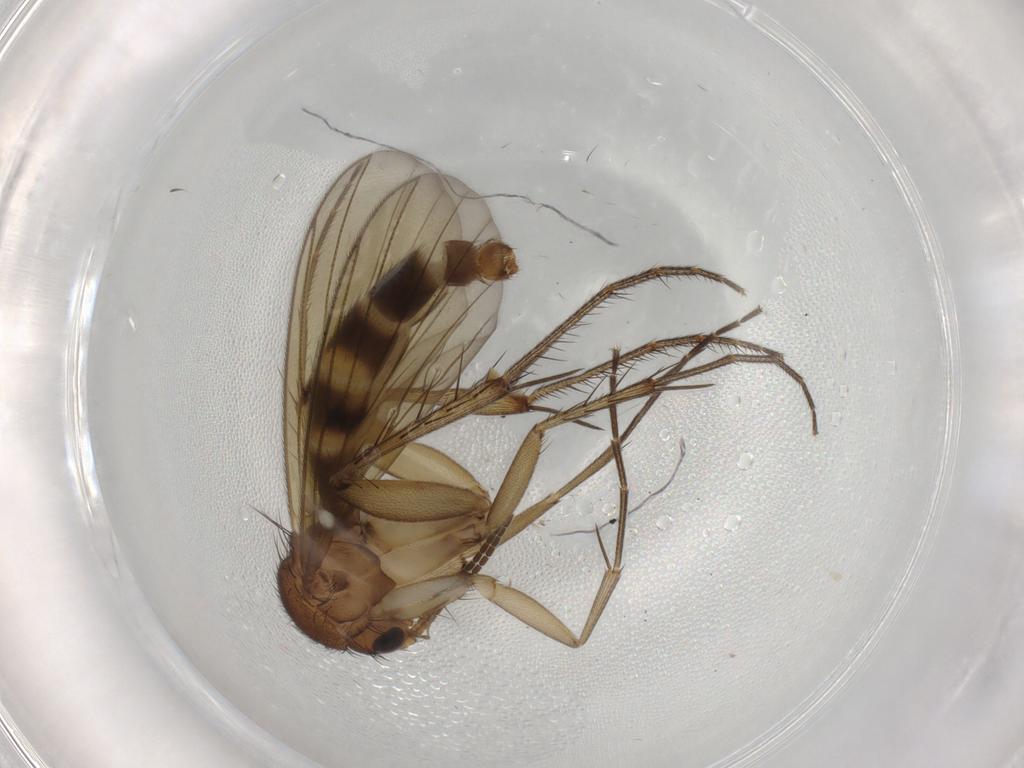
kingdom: Animalia
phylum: Arthropoda
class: Insecta
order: Diptera
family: Mycetophilidae
